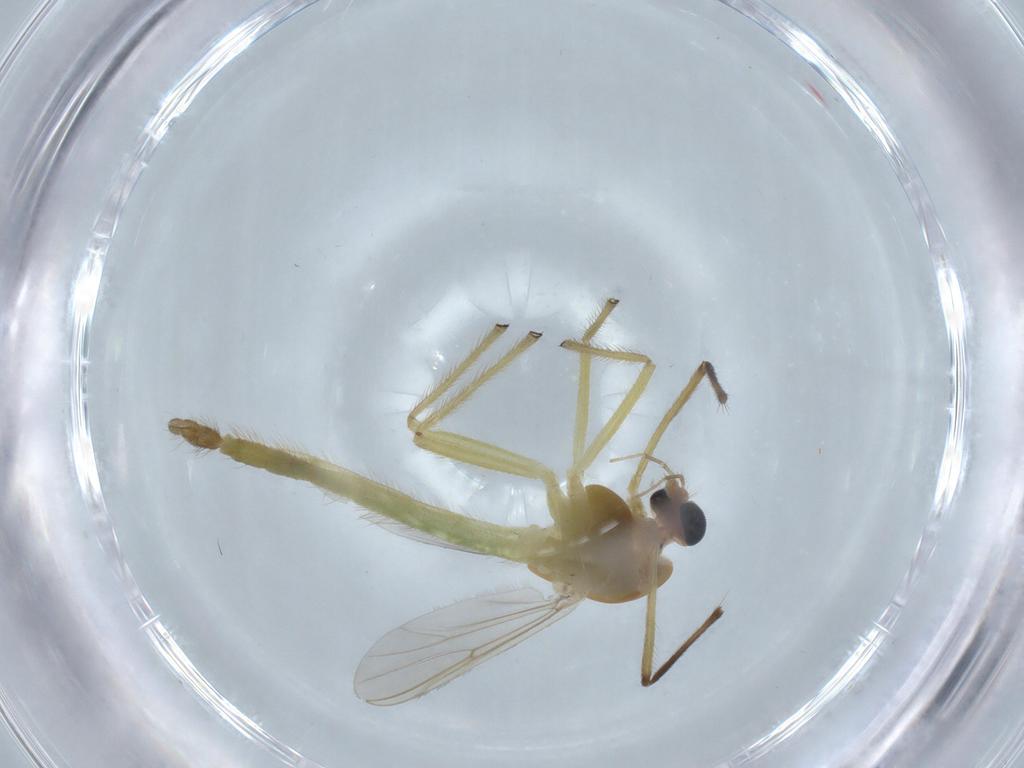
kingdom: Animalia
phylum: Arthropoda
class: Insecta
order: Diptera
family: Chironomidae
